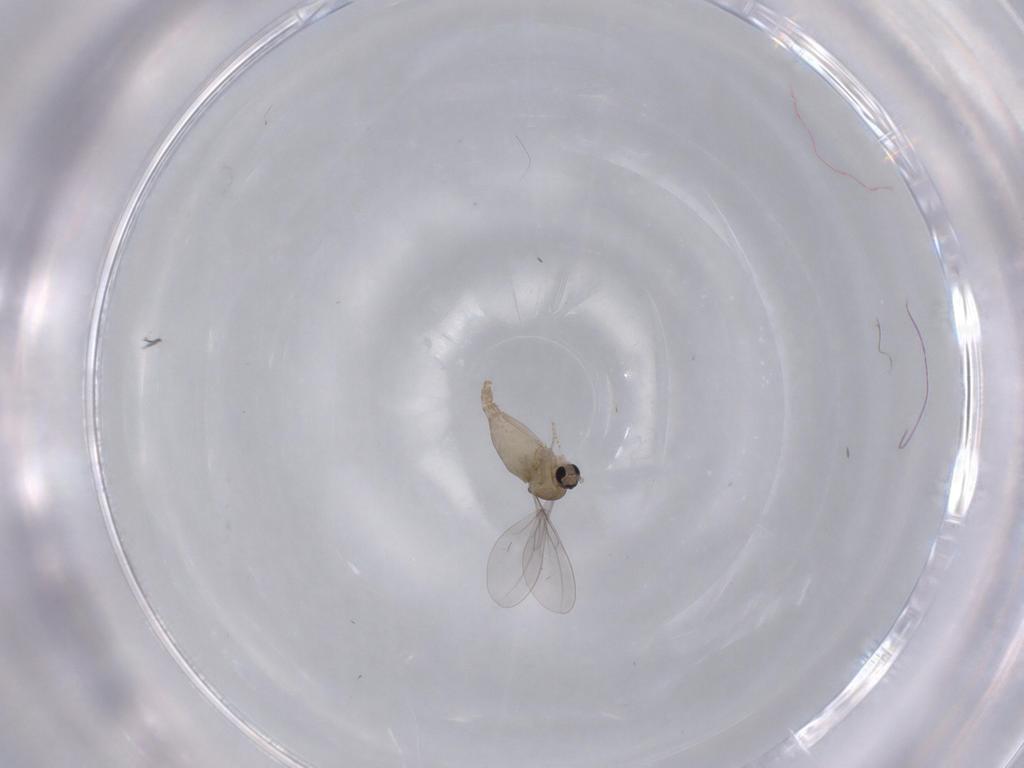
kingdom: Animalia
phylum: Arthropoda
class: Insecta
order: Diptera
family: Cecidomyiidae
